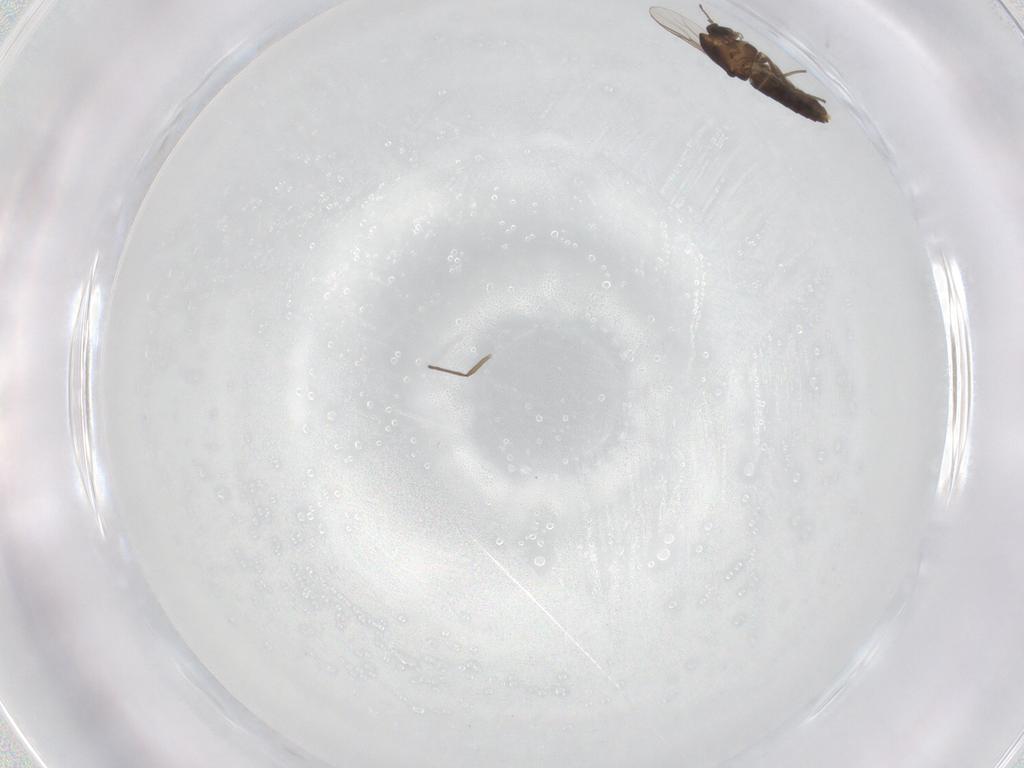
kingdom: Animalia
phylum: Arthropoda
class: Insecta
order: Diptera
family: Chironomidae
